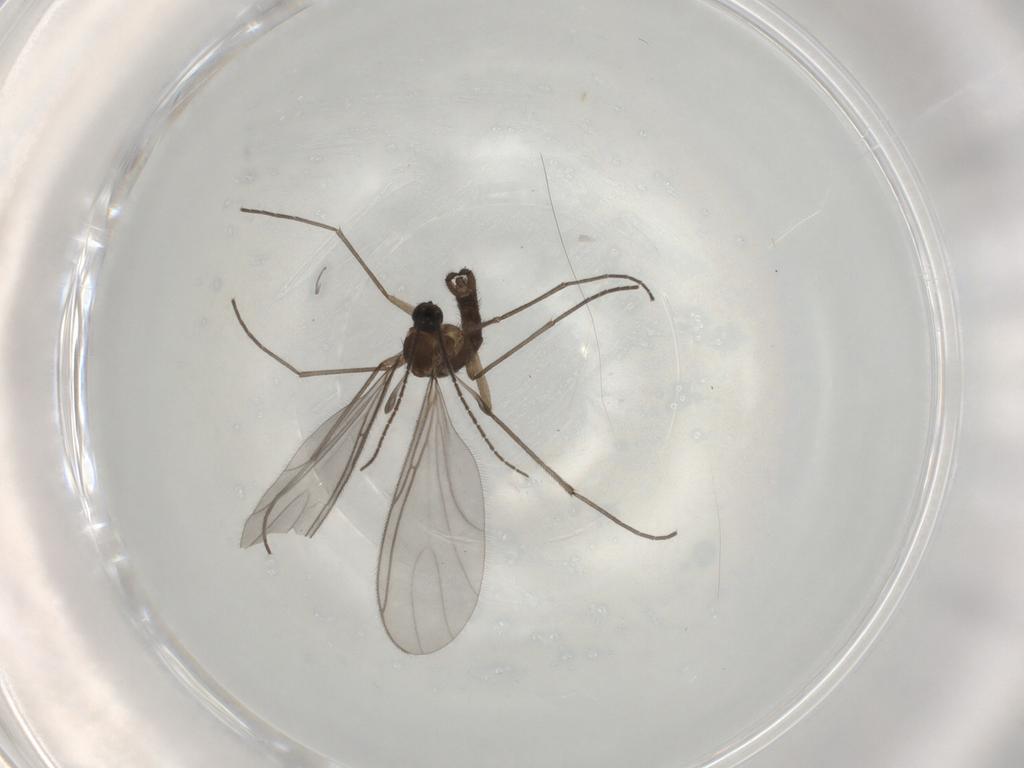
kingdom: Animalia
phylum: Arthropoda
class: Insecta
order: Diptera
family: Sciaridae
